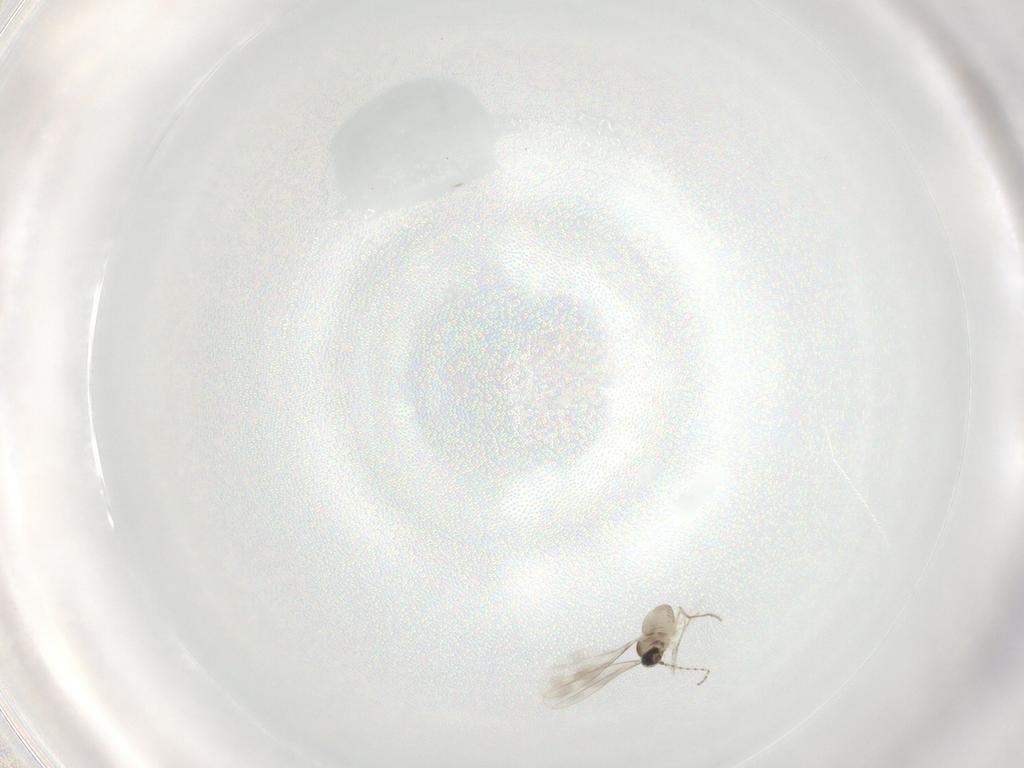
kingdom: Animalia
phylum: Arthropoda
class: Insecta
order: Diptera
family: Cecidomyiidae
